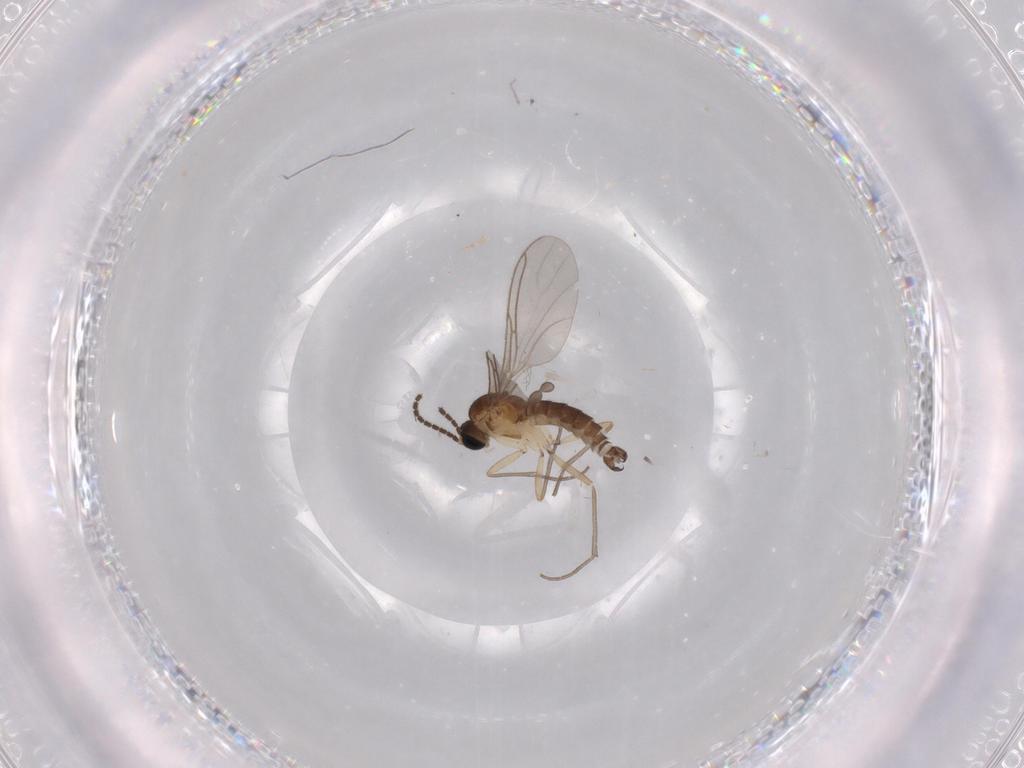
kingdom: Animalia
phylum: Arthropoda
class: Insecta
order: Diptera
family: Sciaridae
